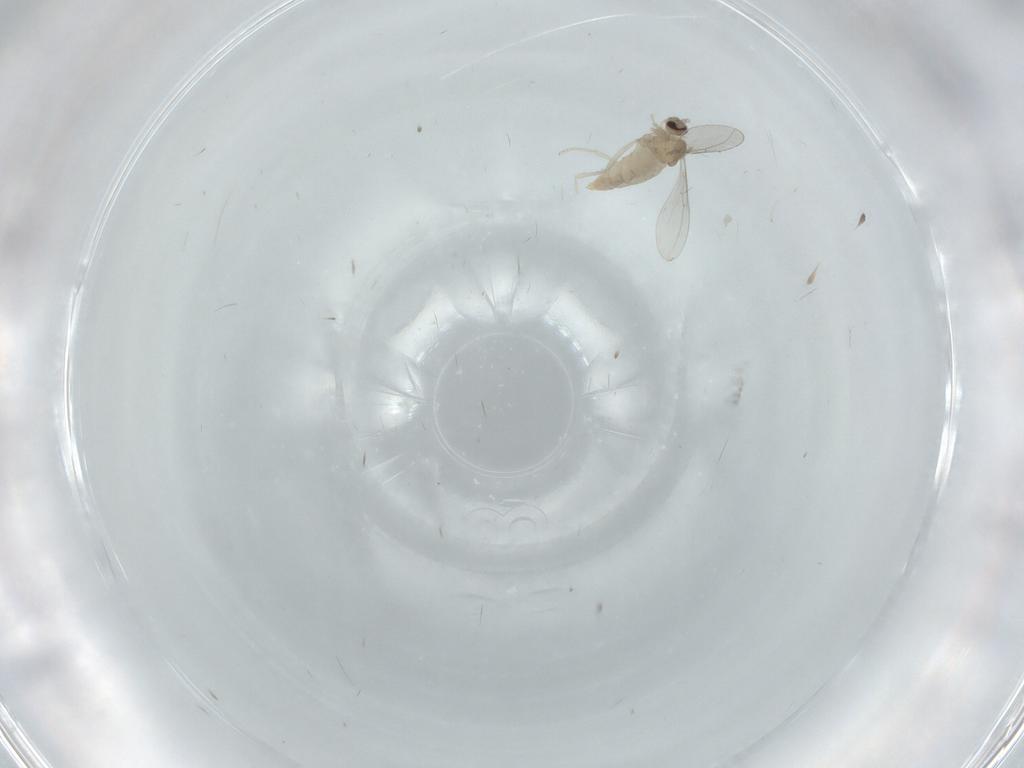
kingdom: Animalia
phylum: Arthropoda
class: Insecta
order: Diptera
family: Cecidomyiidae
